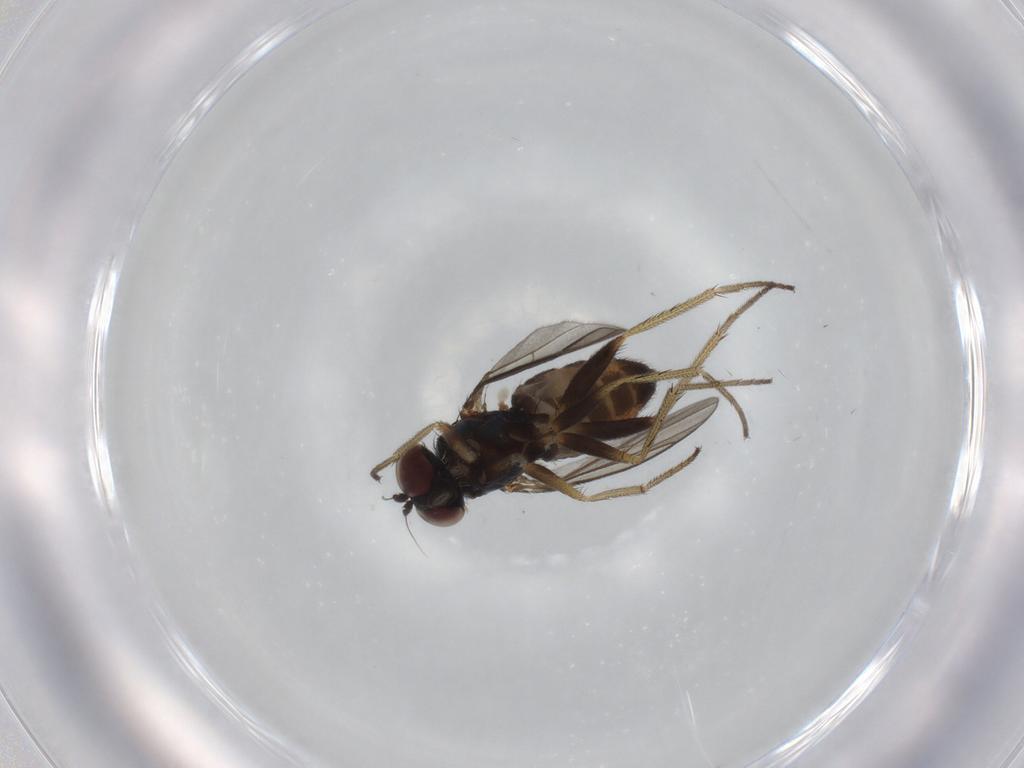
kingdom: Animalia
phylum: Arthropoda
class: Insecta
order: Diptera
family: Dolichopodidae
